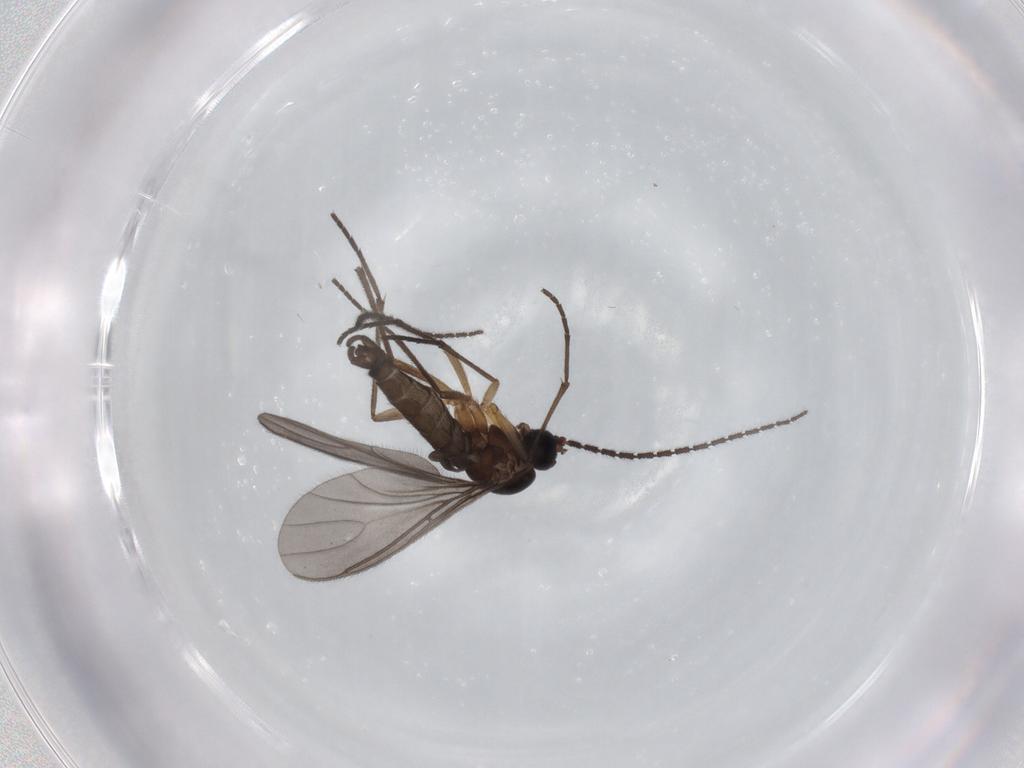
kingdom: Animalia
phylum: Arthropoda
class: Insecta
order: Diptera
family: Sciaridae
